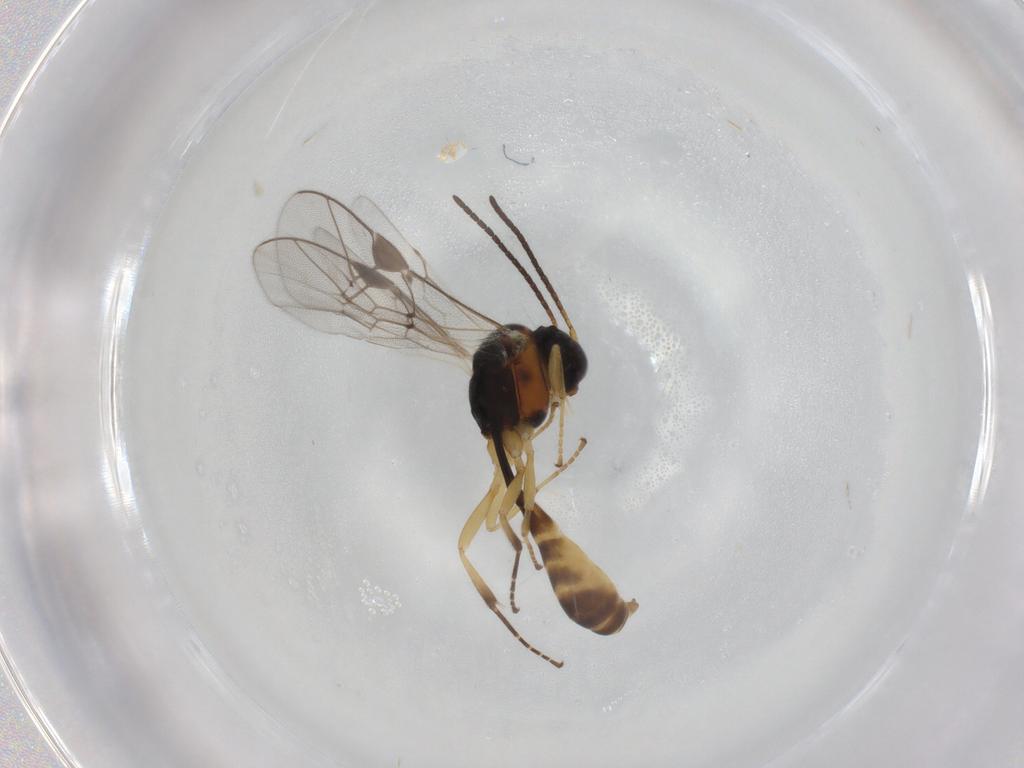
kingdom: Animalia
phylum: Arthropoda
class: Insecta
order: Hymenoptera
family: Ichneumonidae
